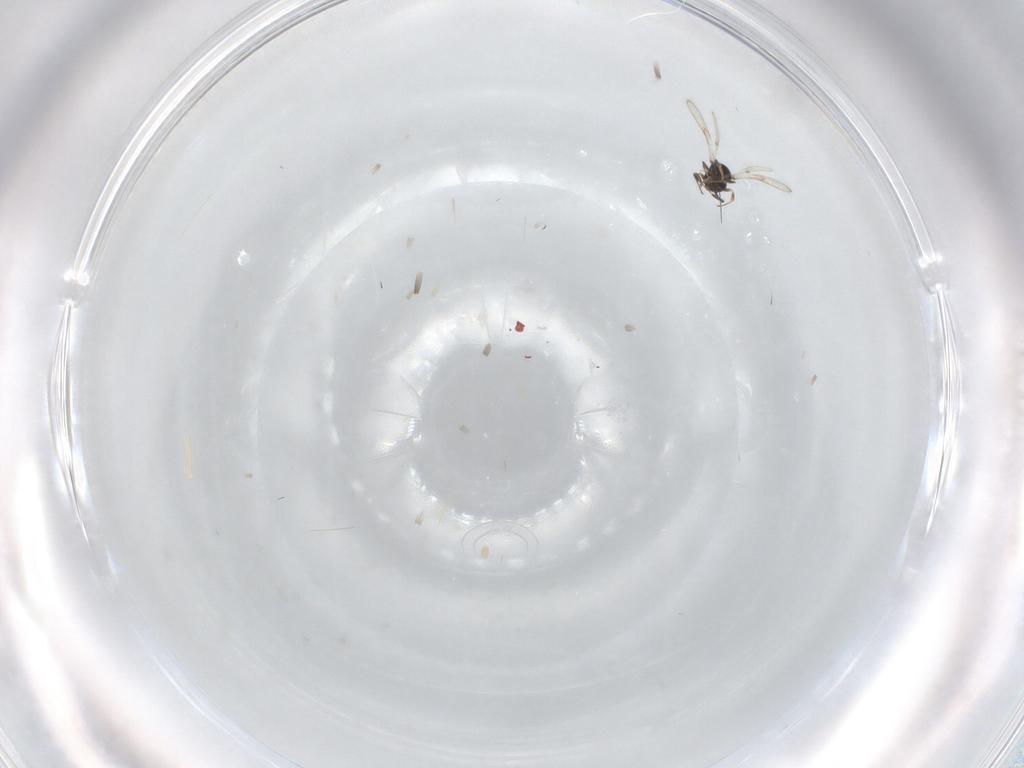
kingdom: Animalia
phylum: Arthropoda
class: Insecta
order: Hymenoptera
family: Scelionidae
